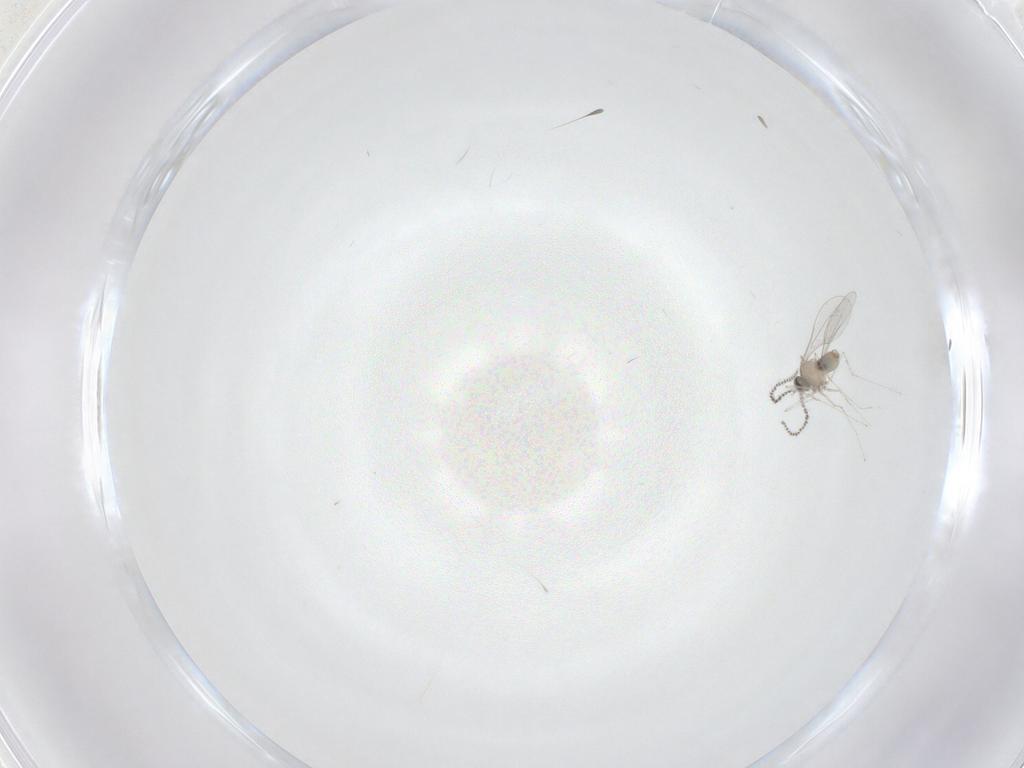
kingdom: Animalia
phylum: Arthropoda
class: Insecta
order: Diptera
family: Cecidomyiidae
